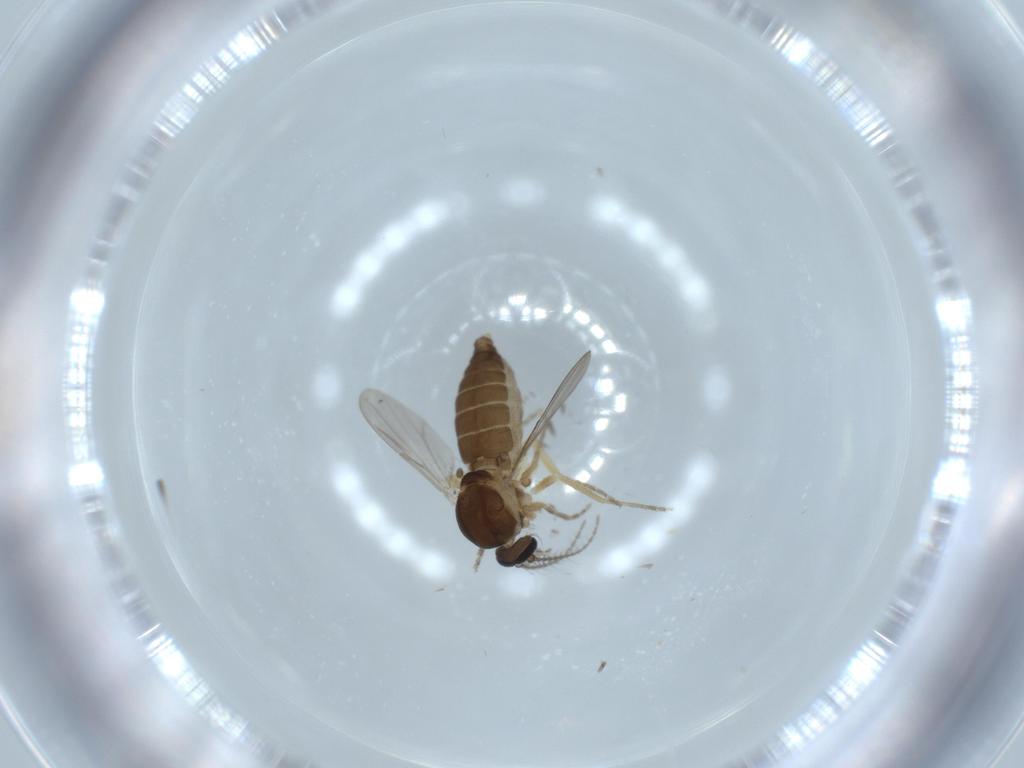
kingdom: Animalia
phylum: Arthropoda
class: Insecta
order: Diptera
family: Ceratopogonidae
